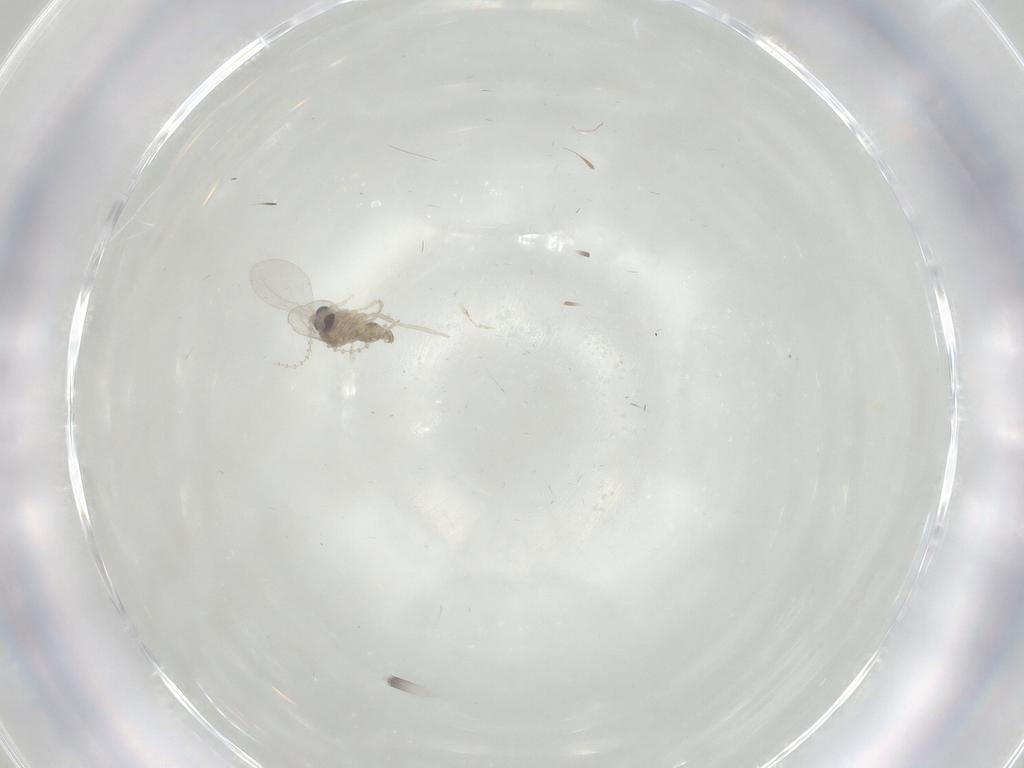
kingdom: Animalia
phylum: Arthropoda
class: Insecta
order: Diptera
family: Cecidomyiidae
